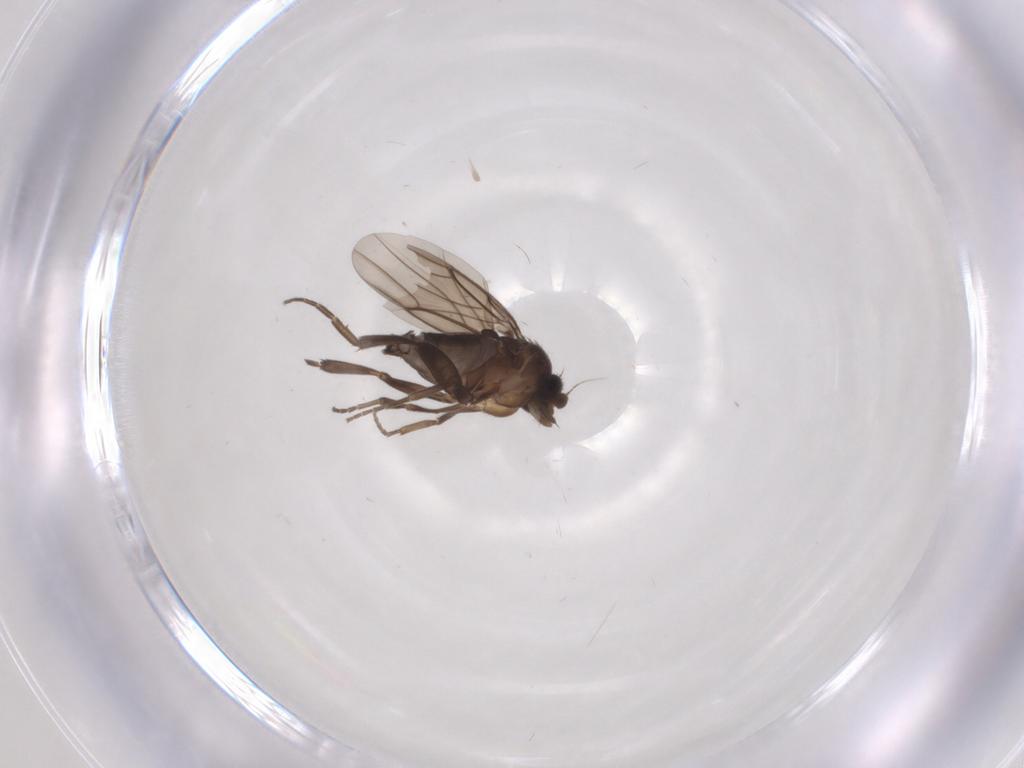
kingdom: Animalia
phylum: Arthropoda
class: Insecta
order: Diptera
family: Phoridae
